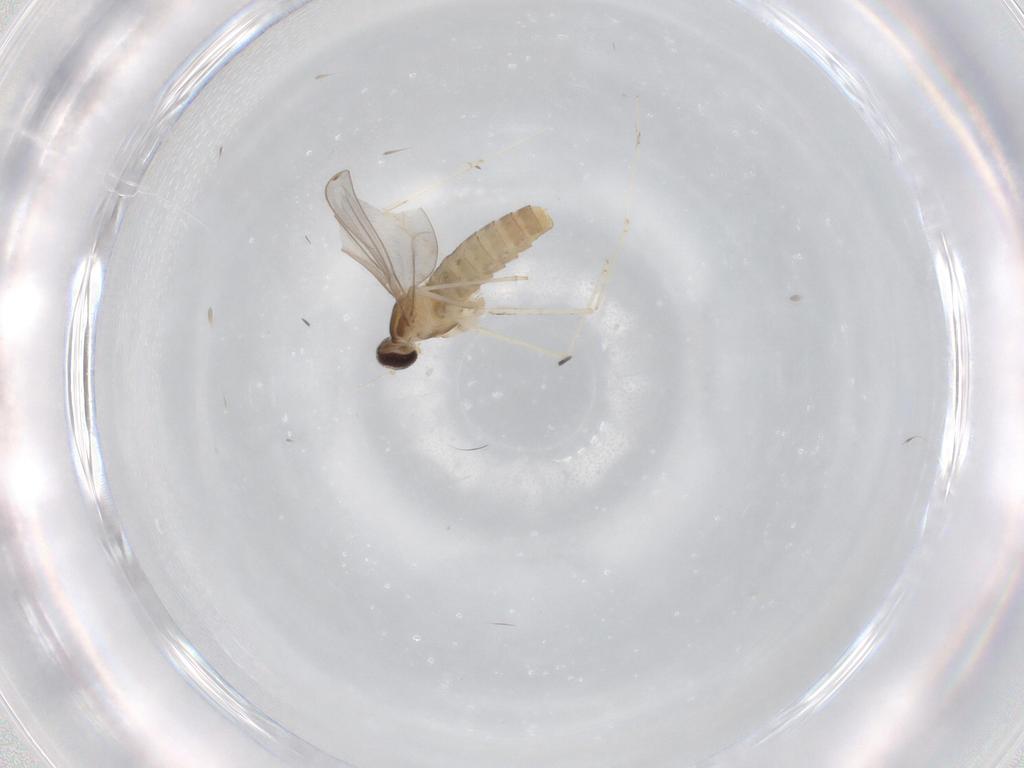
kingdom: Animalia
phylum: Arthropoda
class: Insecta
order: Diptera
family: Cecidomyiidae
